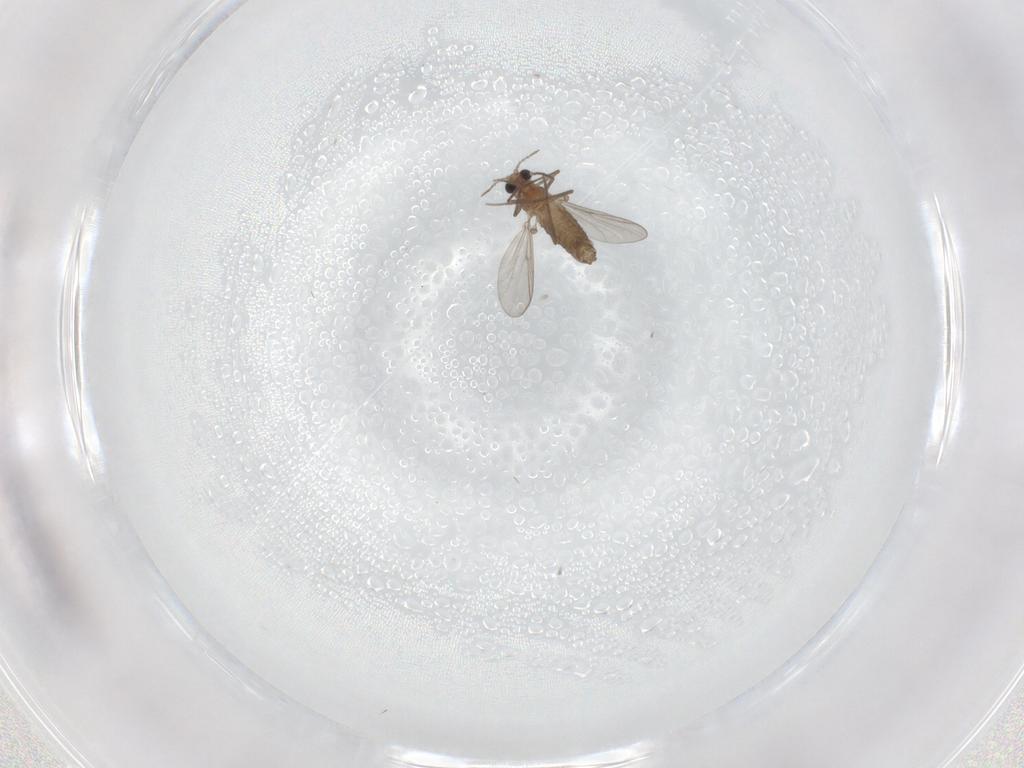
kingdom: Animalia
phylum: Arthropoda
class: Insecta
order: Diptera
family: Chironomidae
